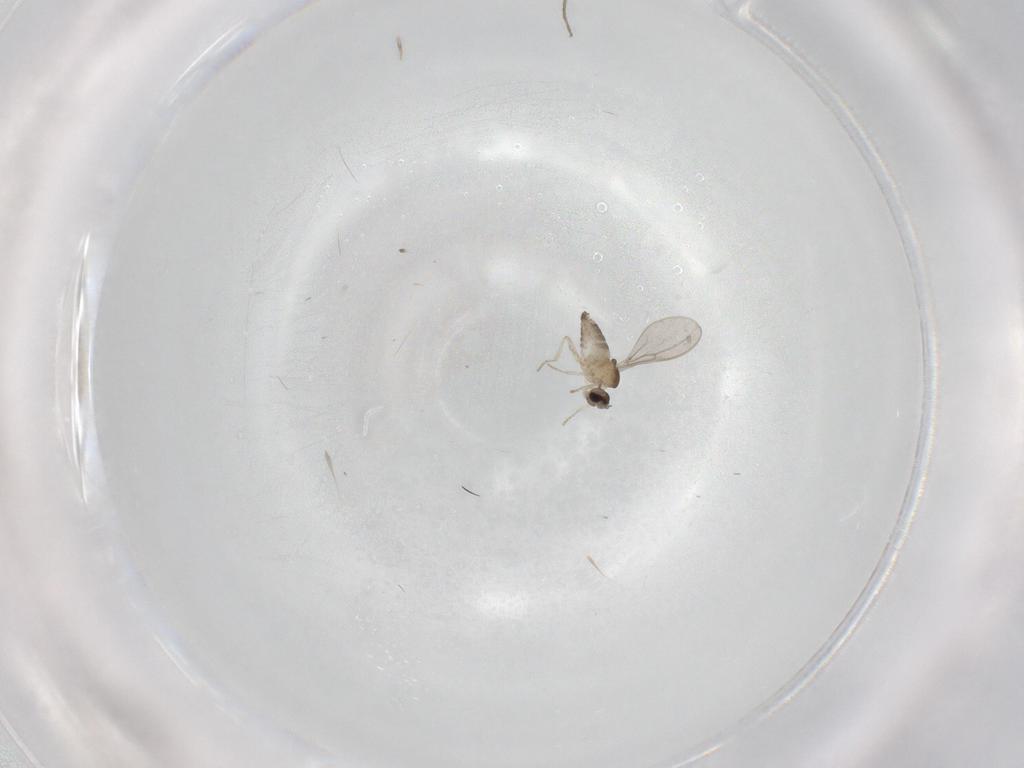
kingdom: Animalia
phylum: Arthropoda
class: Insecta
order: Diptera
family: Cecidomyiidae
